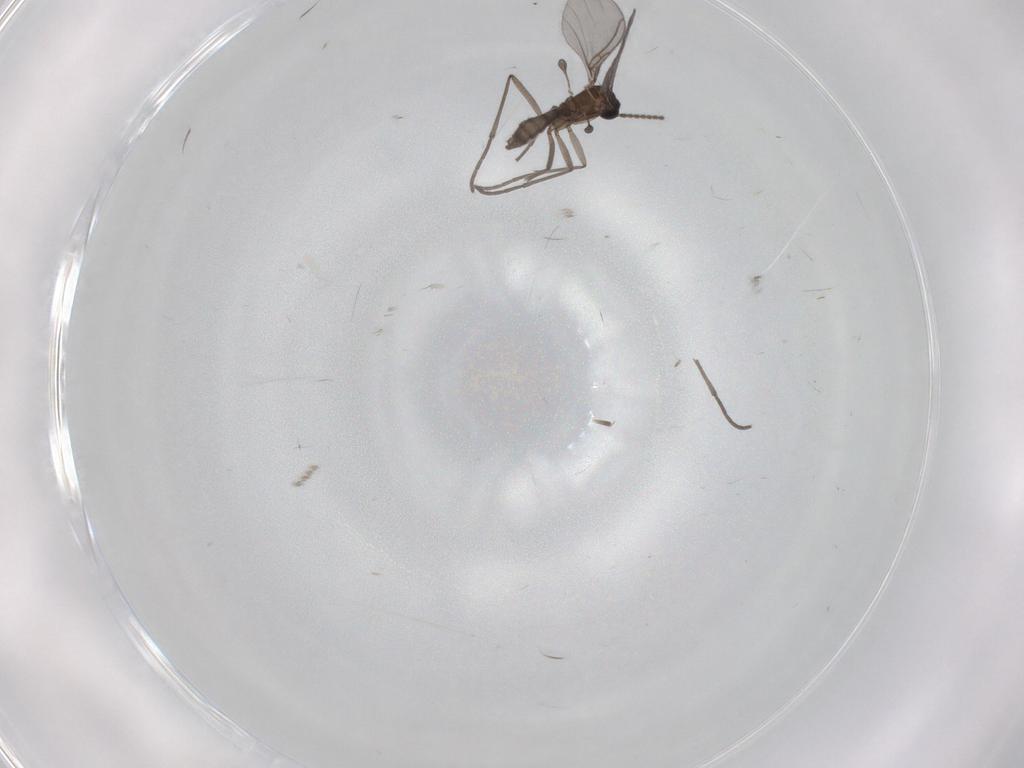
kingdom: Animalia
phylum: Arthropoda
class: Insecta
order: Diptera
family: Sciaridae
